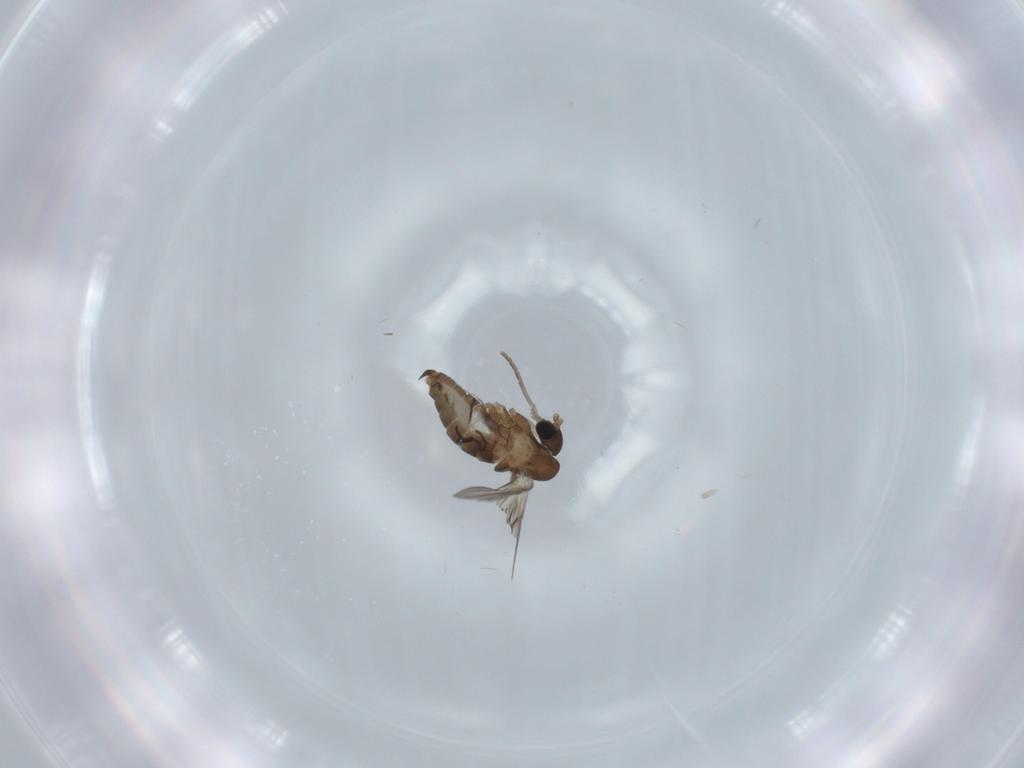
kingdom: Animalia
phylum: Arthropoda
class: Insecta
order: Diptera
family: Psychodidae
